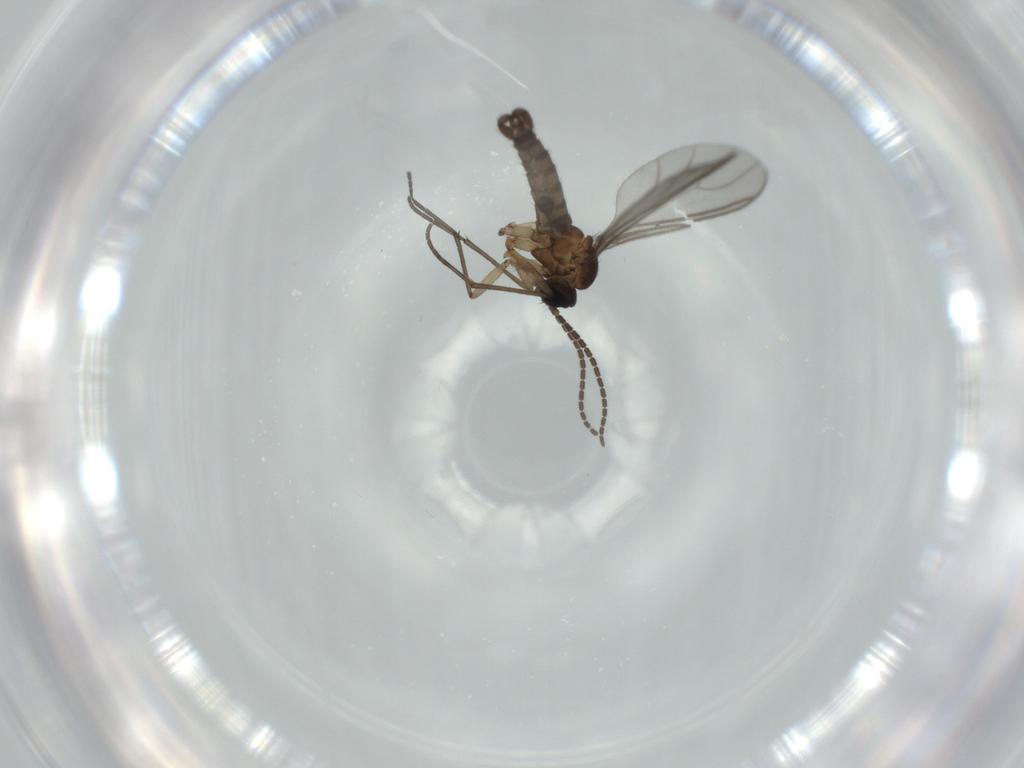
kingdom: Animalia
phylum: Arthropoda
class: Insecta
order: Diptera
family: Sciaridae
